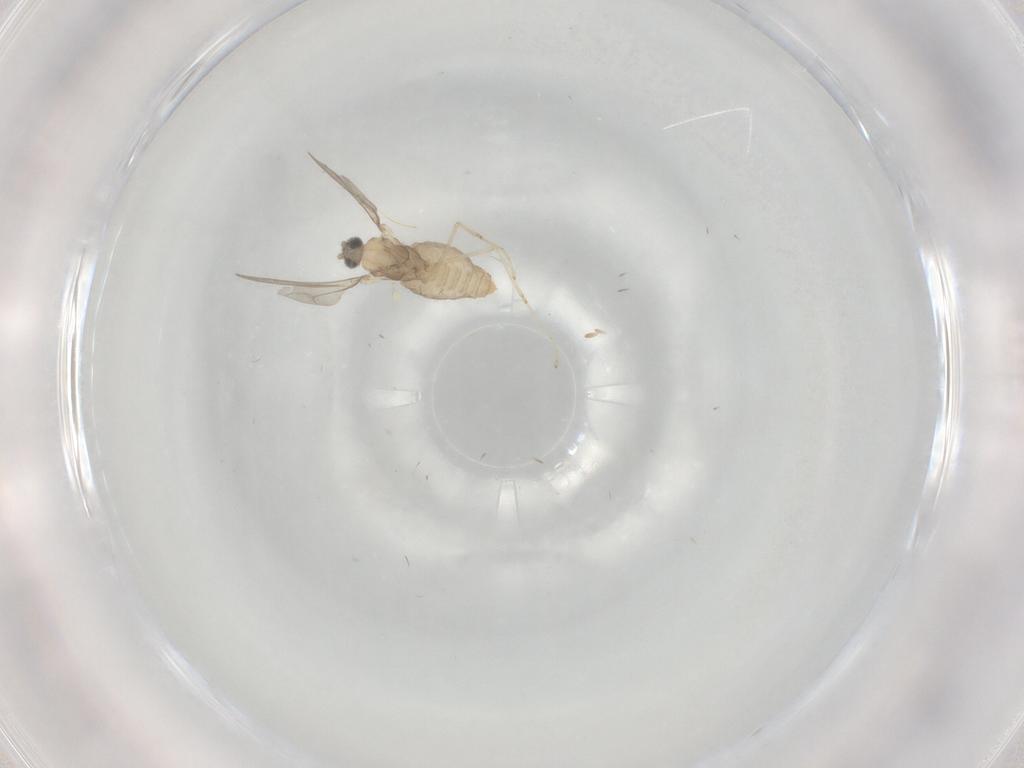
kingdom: Animalia
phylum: Arthropoda
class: Insecta
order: Diptera
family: Cecidomyiidae
